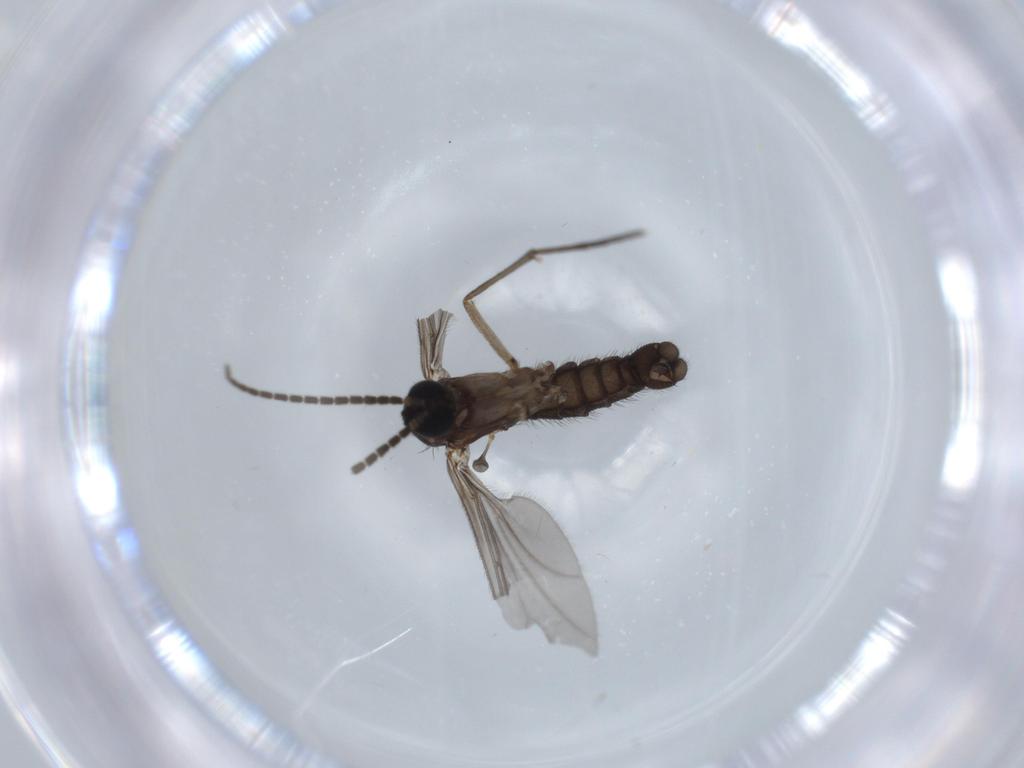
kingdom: Animalia
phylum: Arthropoda
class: Insecta
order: Diptera
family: Sciaridae
